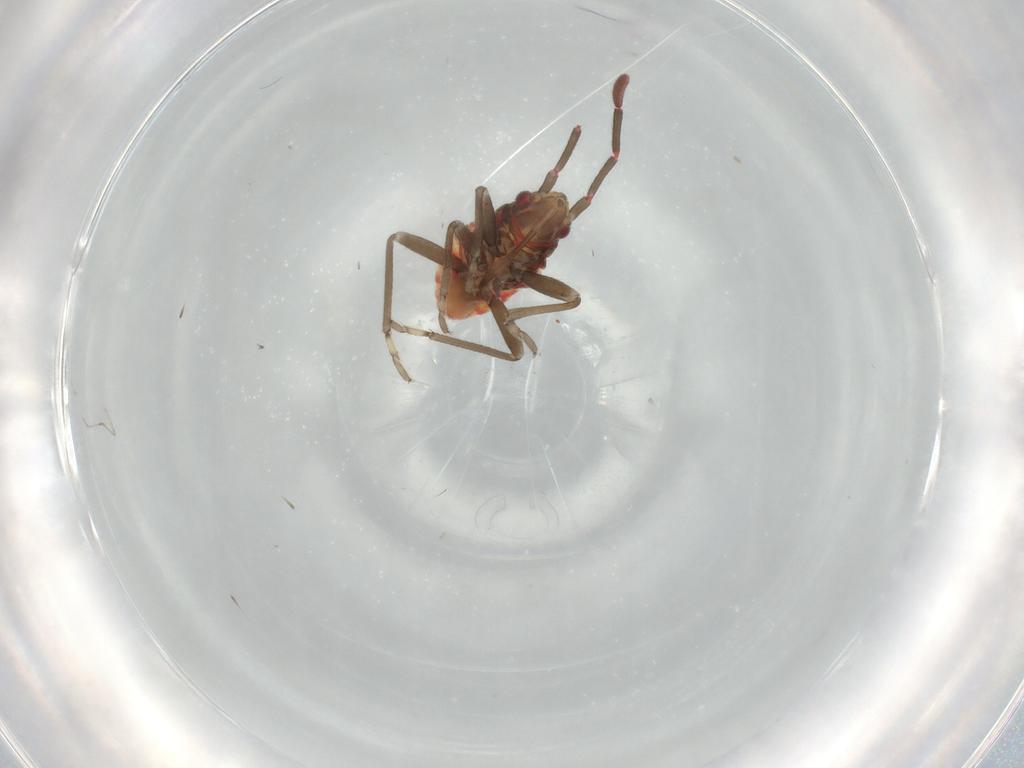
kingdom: Animalia
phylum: Arthropoda
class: Insecta
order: Hemiptera
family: Rhyparochromidae
